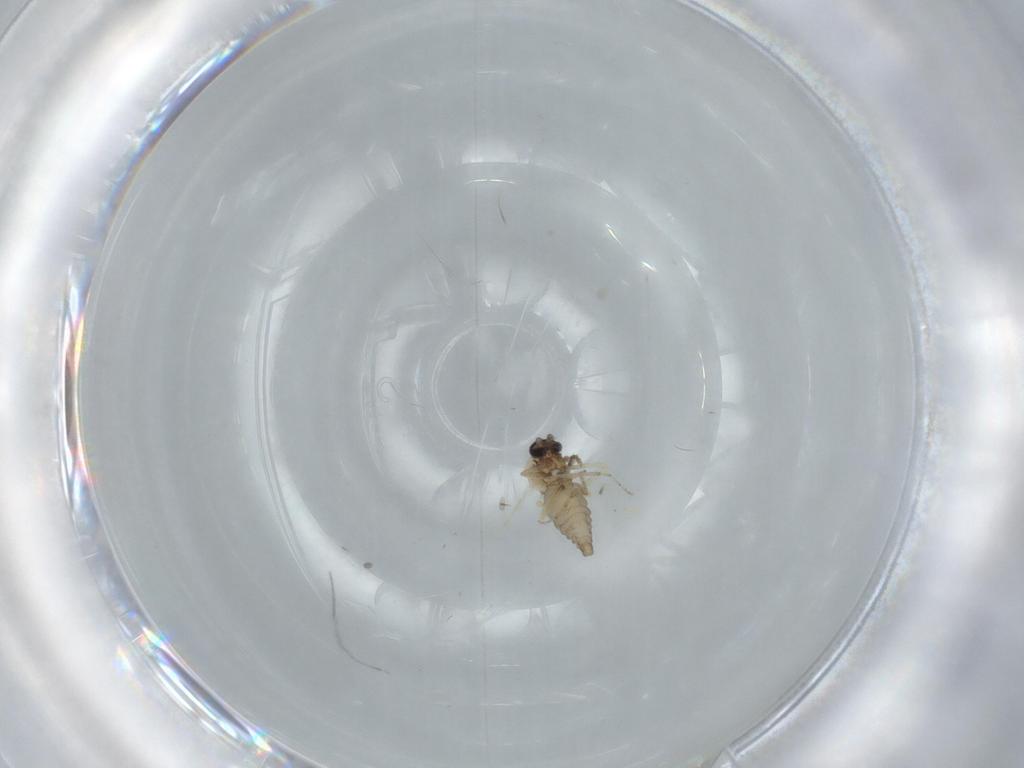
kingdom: Animalia
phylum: Arthropoda
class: Insecta
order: Diptera
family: Ceratopogonidae
